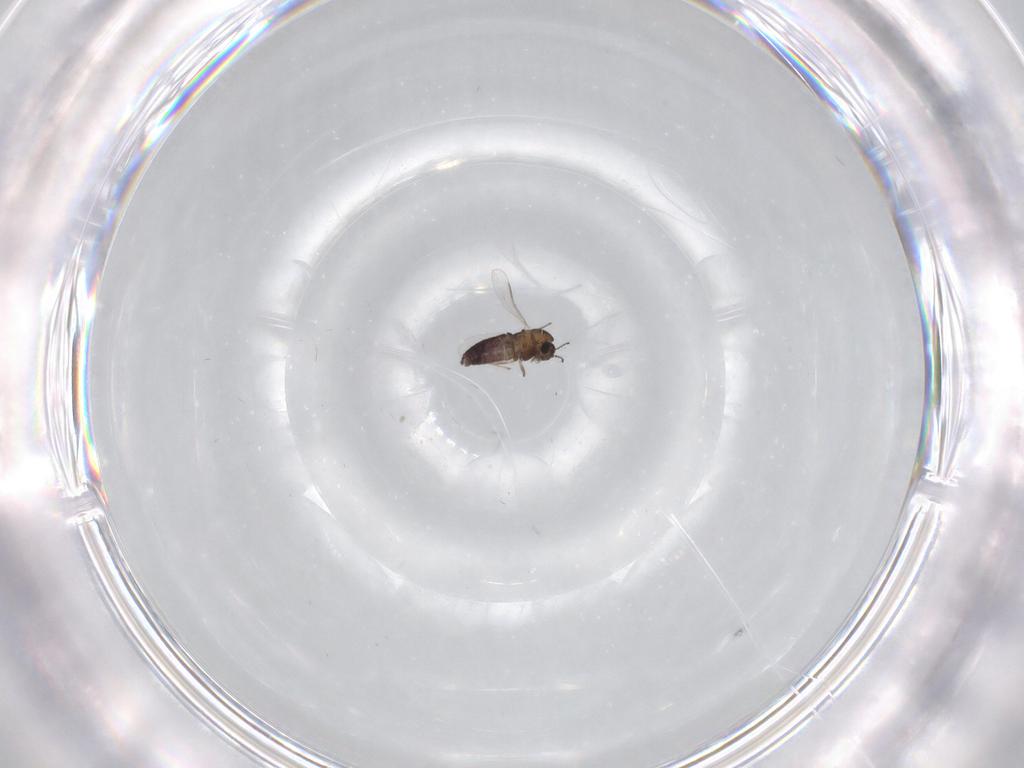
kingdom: Animalia
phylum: Arthropoda
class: Insecta
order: Diptera
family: Chironomidae
